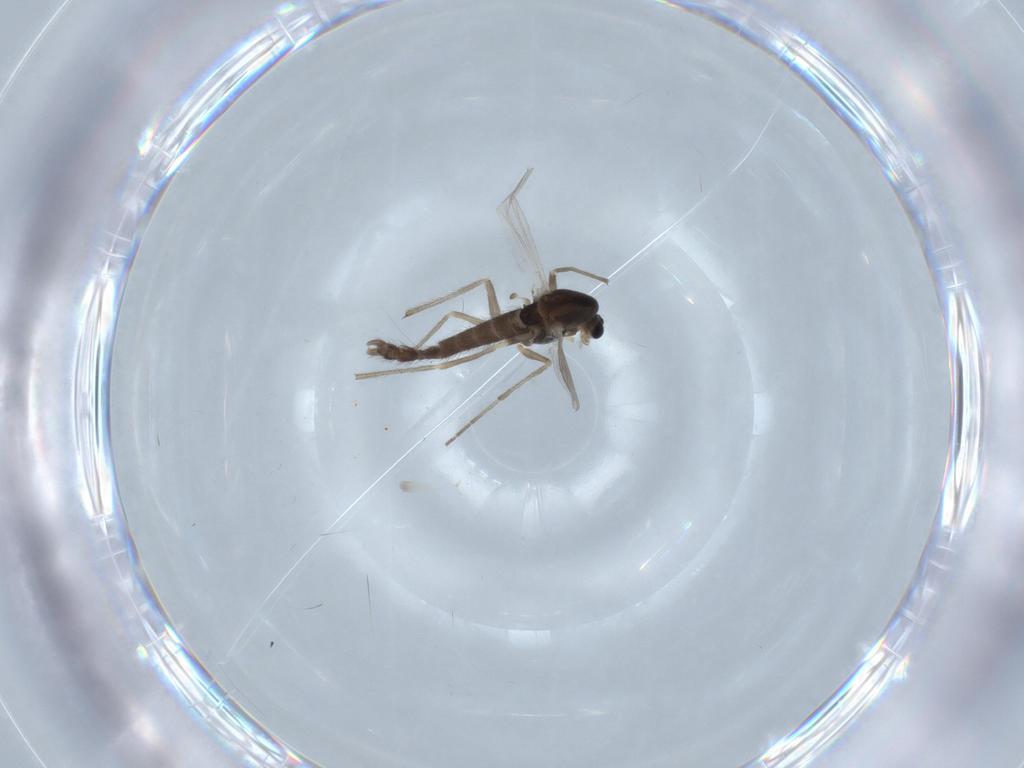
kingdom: Animalia
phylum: Arthropoda
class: Insecta
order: Diptera
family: Chironomidae
